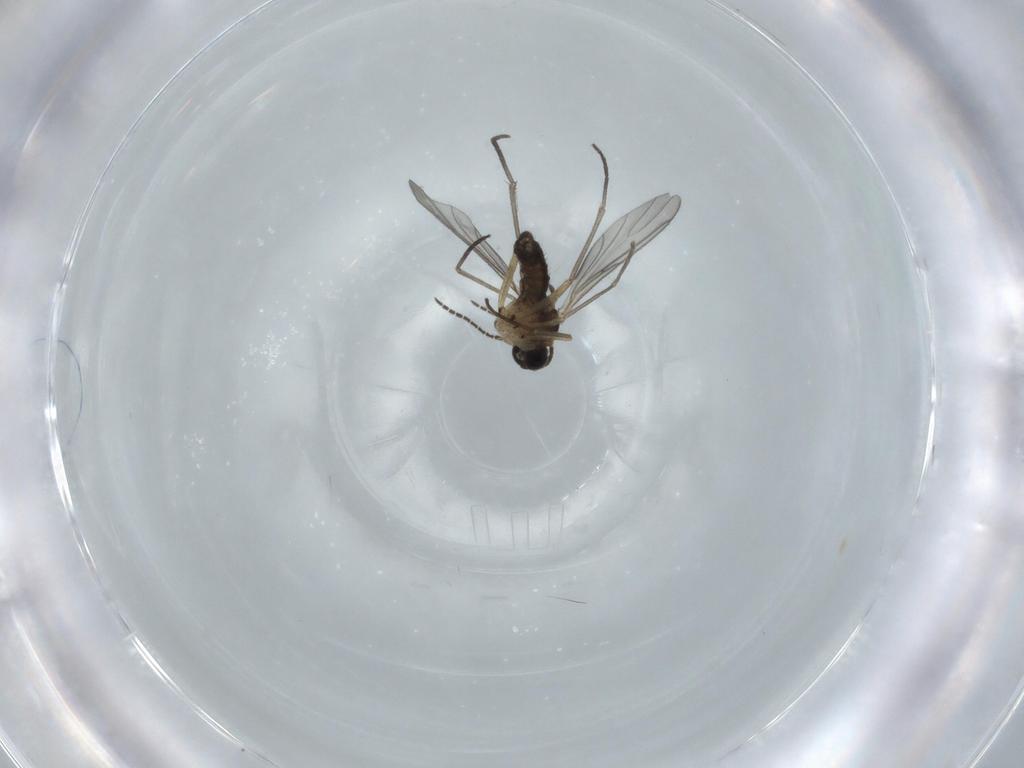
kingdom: Animalia
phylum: Arthropoda
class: Insecta
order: Diptera
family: Sciaridae
